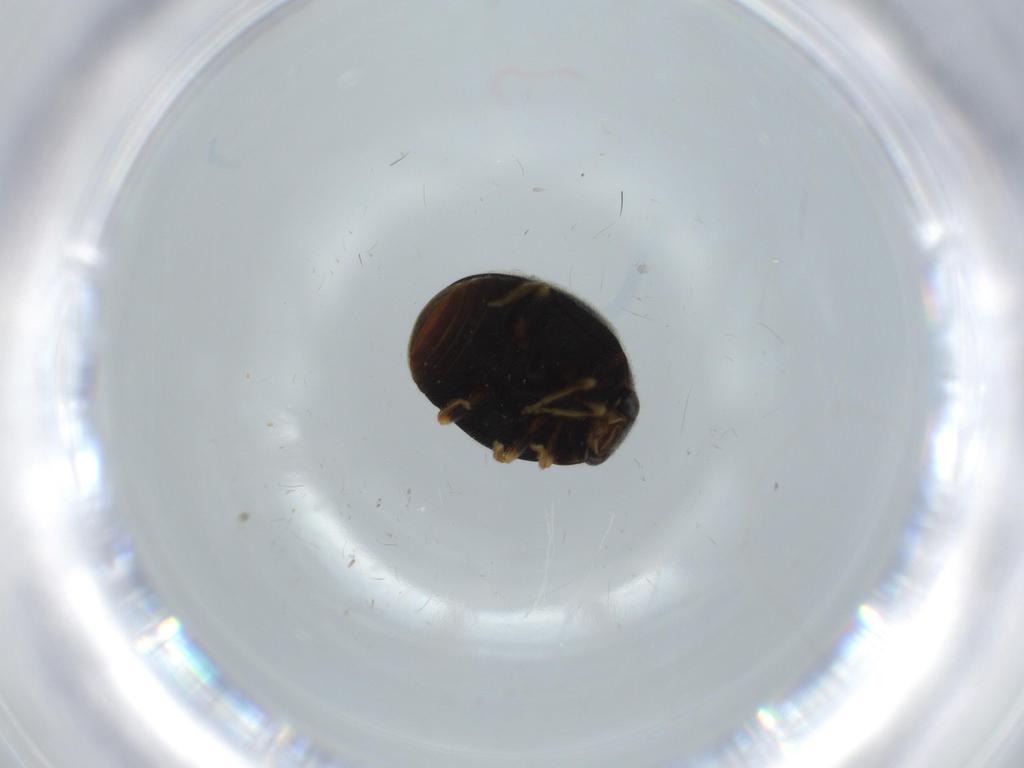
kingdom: Animalia
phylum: Arthropoda
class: Insecta
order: Coleoptera
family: Coccinellidae
